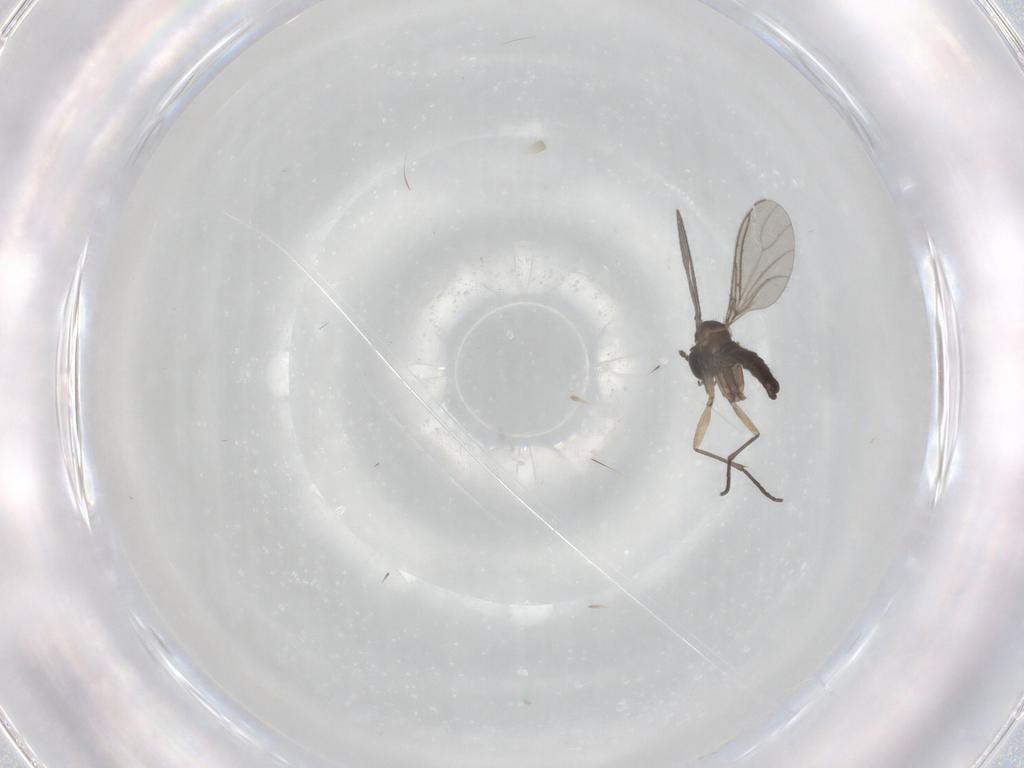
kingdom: Animalia
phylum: Arthropoda
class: Insecta
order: Diptera
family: Sciaridae
